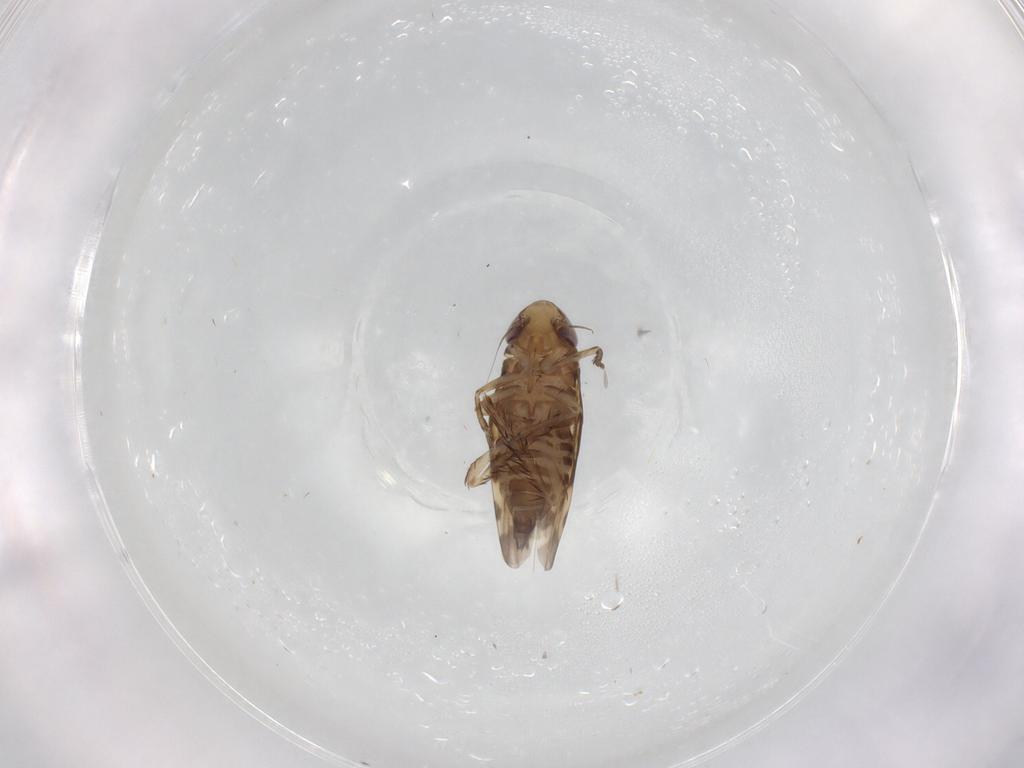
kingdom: Animalia
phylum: Arthropoda
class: Insecta
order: Hemiptera
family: Cicadellidae
